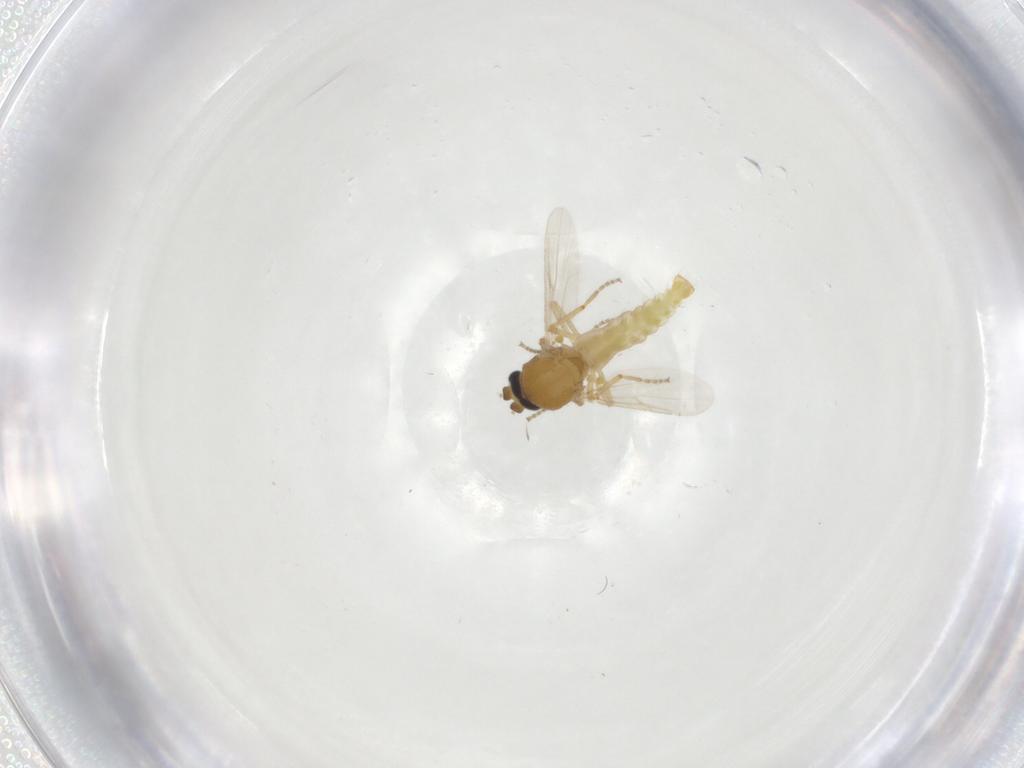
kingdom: Animalia
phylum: Arthropoda
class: Insecta
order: Diptera
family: Ceratopogonidae
